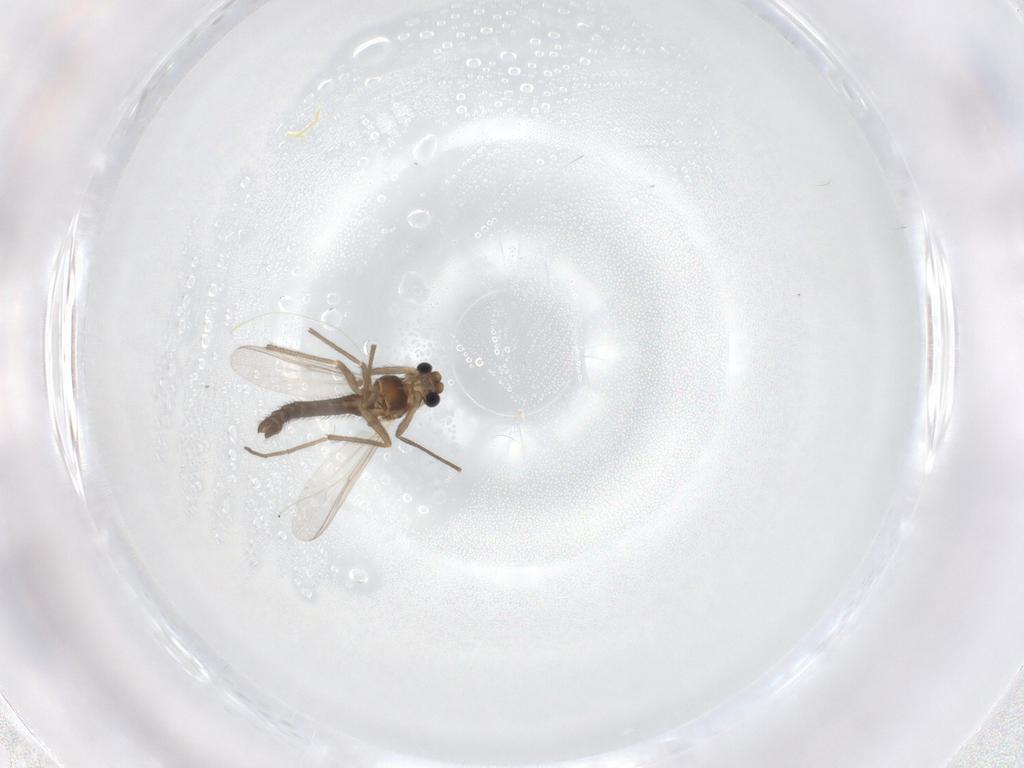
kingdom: Animalia
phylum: Arthropoda
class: Insecta
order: Diptera
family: Chironomidae
